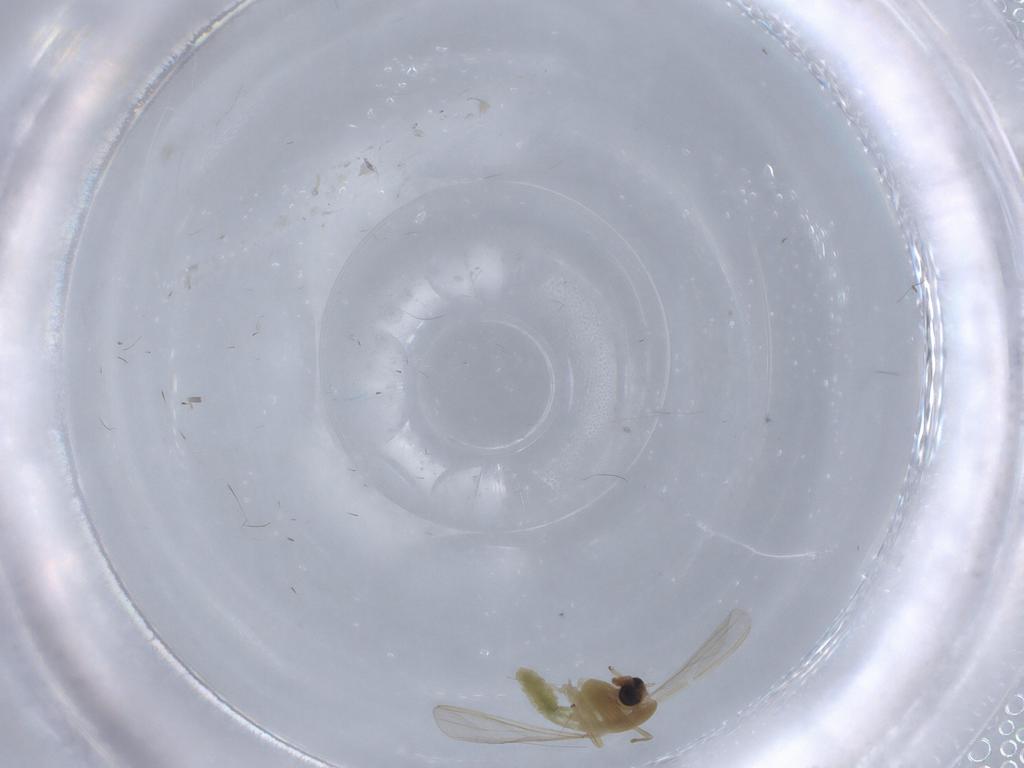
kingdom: Animalia
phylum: Arthropoda
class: Insecta
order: Diptera
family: Chironomidae
